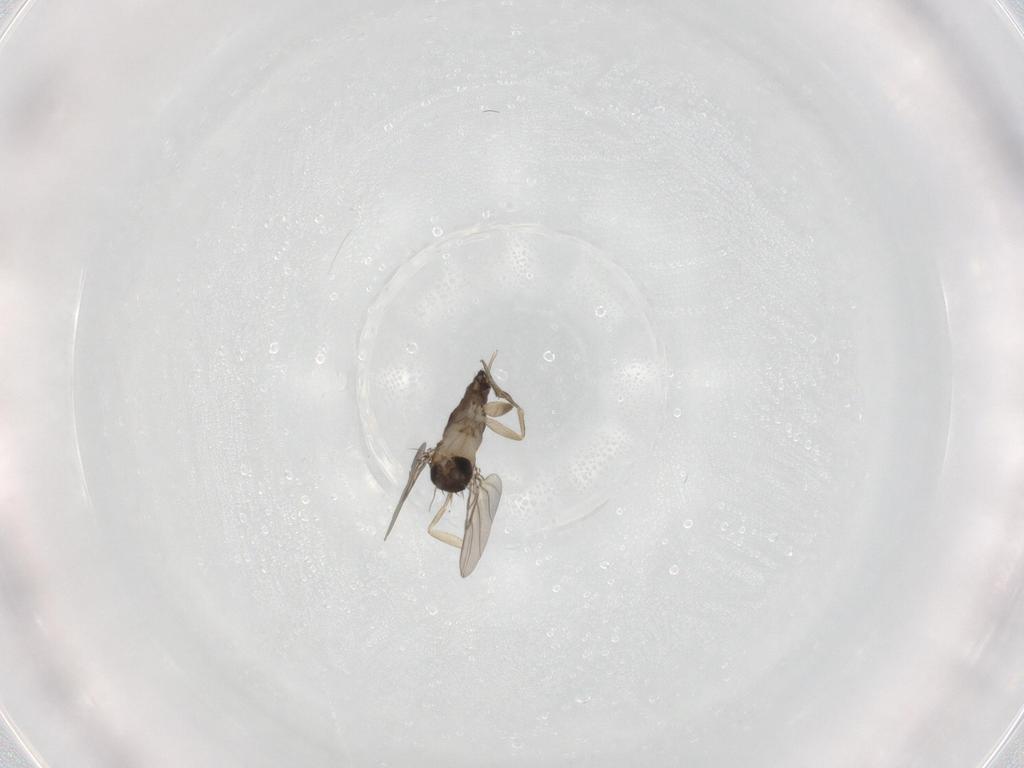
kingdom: Animalia
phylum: Arthropoda
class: Insecta
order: Diptera
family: Phoridae
